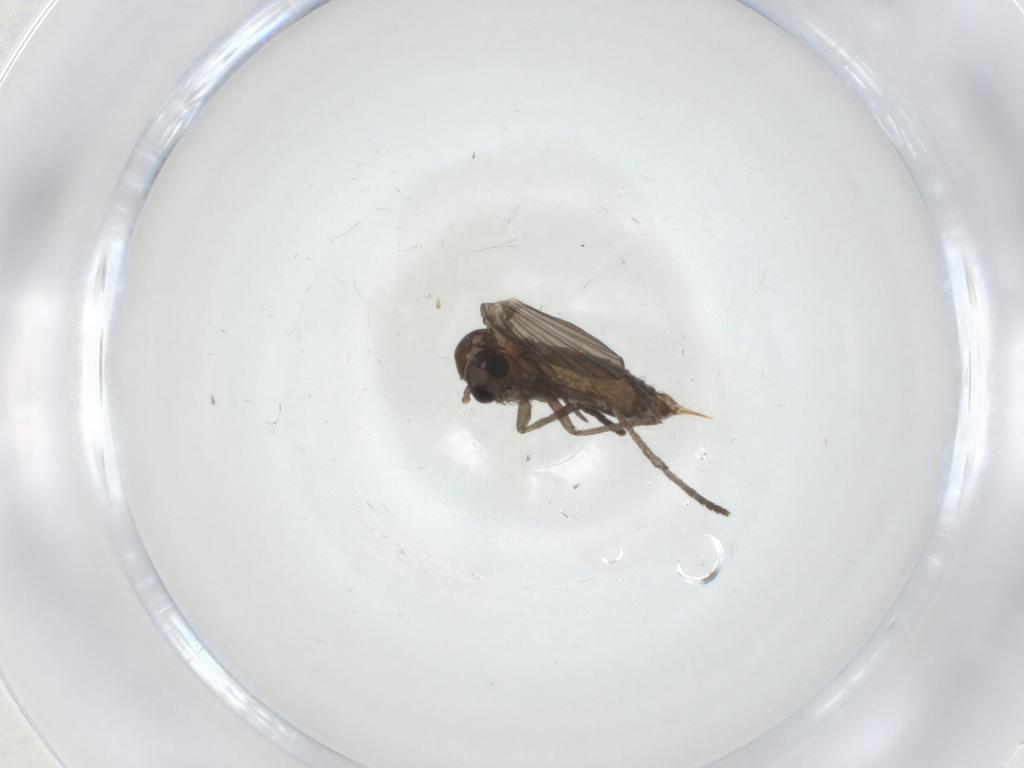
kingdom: Animalia
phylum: Arthropoda
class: Insecta
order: Diptera
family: Psychodidae
